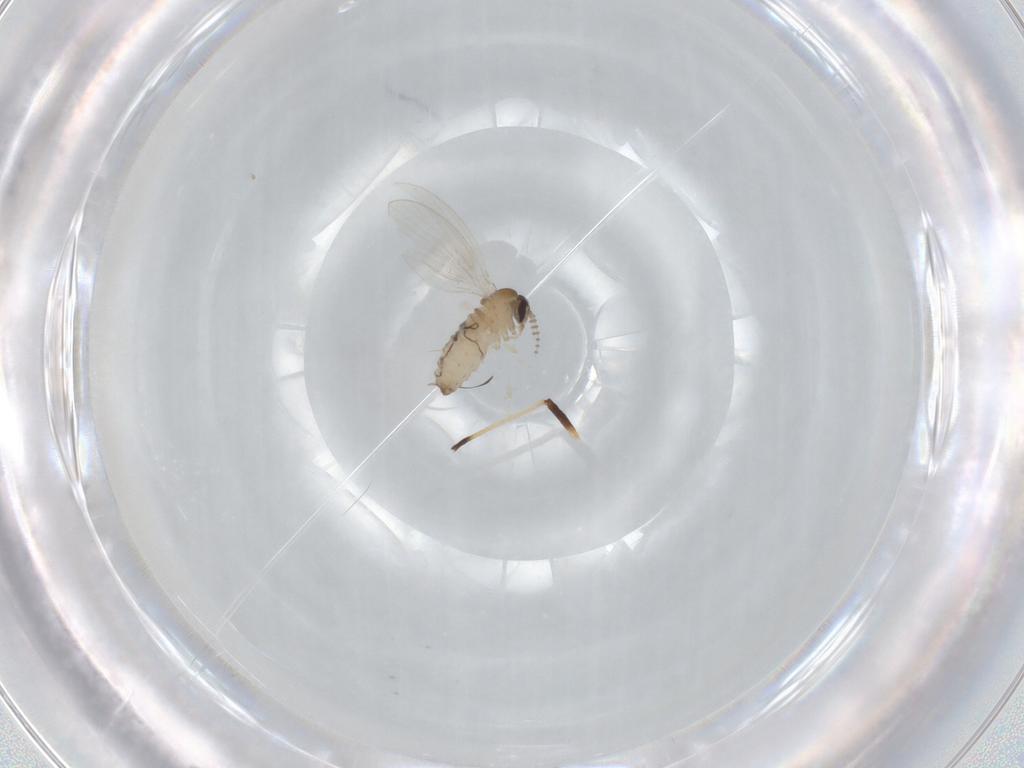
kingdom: Animalia
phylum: Arthropoda
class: Insecta
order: Diptera
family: Psychodidae
